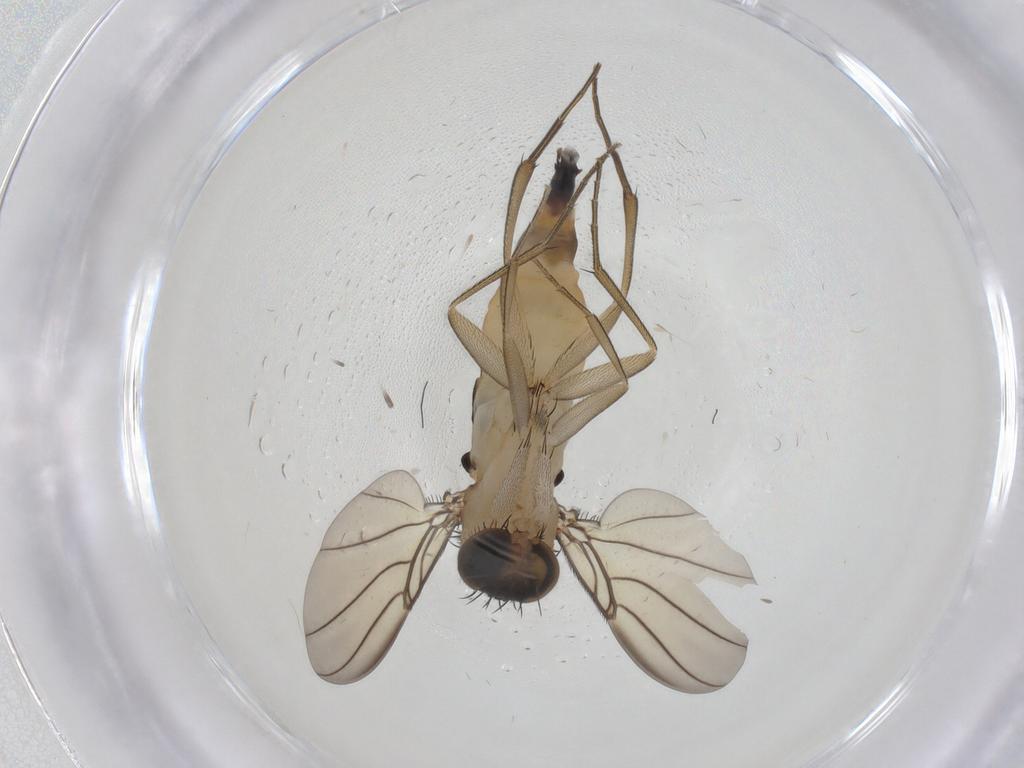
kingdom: Animalia
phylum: Arthropoda
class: Insecta
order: Diptera
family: Phoridae
